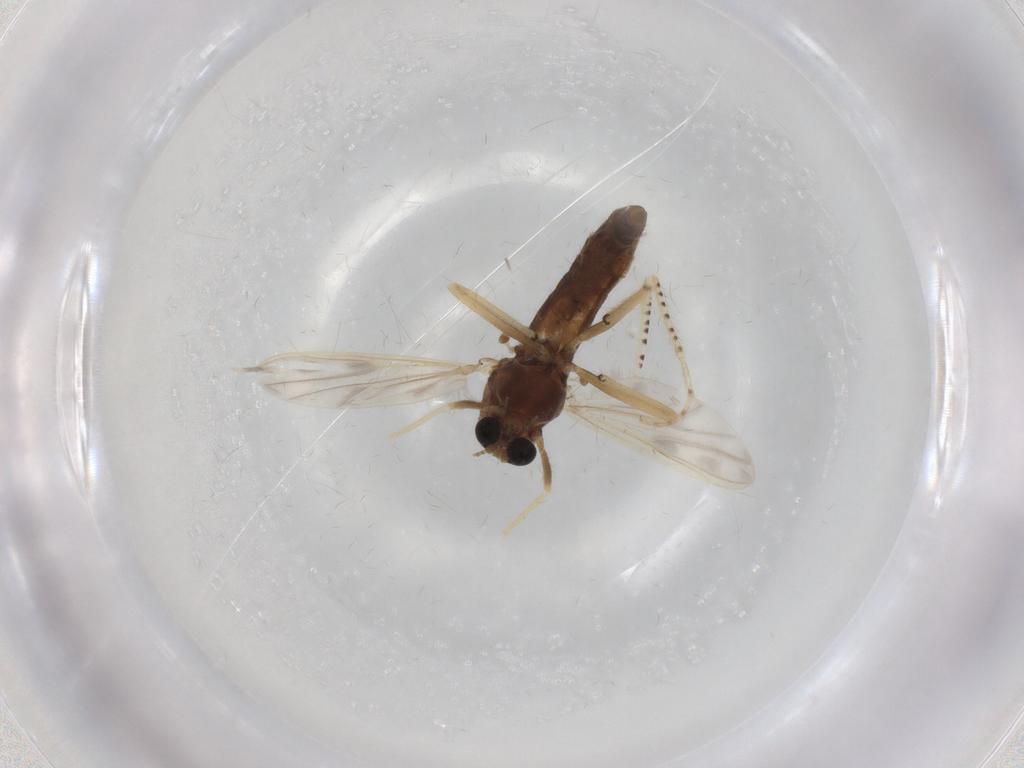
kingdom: Animalia
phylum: Arthropoda
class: Insecta
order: Diptera
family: Chironomidae
